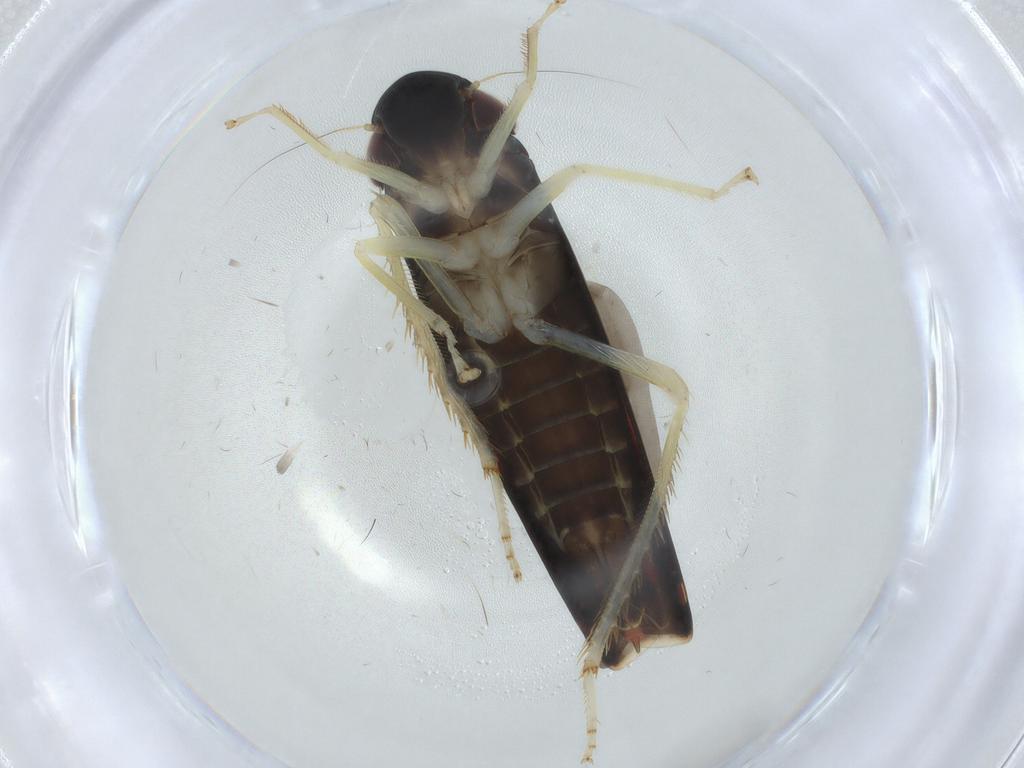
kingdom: Animalia
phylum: Arthropoda
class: Insecta
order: Hemiptera
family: Cicadellidae
